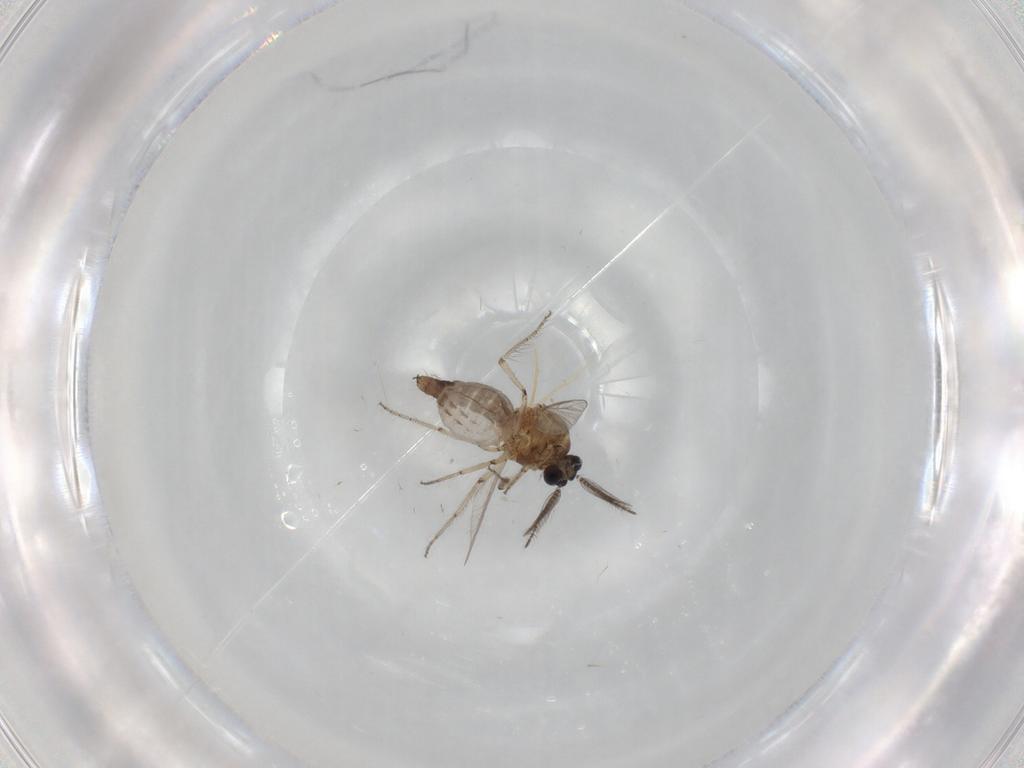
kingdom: Animalia
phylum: Arthropoda
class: Insecta
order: Diptera
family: Ceratopogonidae
